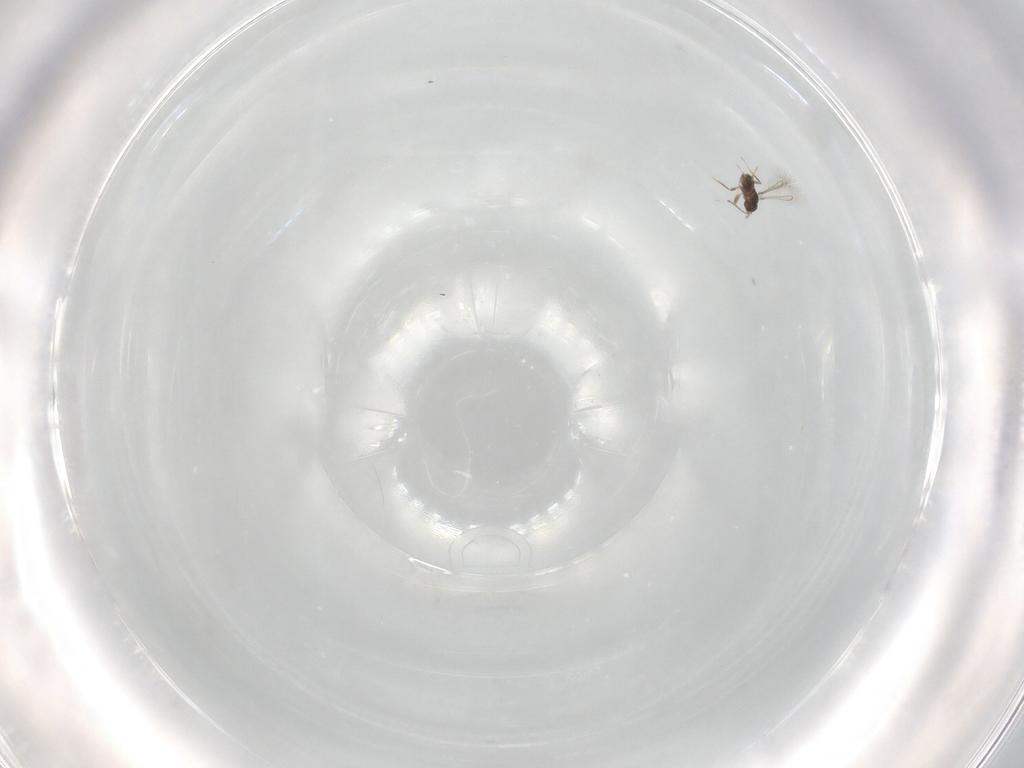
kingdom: Animalia
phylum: Arthropoda
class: Insecta
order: Hymenoptera
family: Mymaridae
